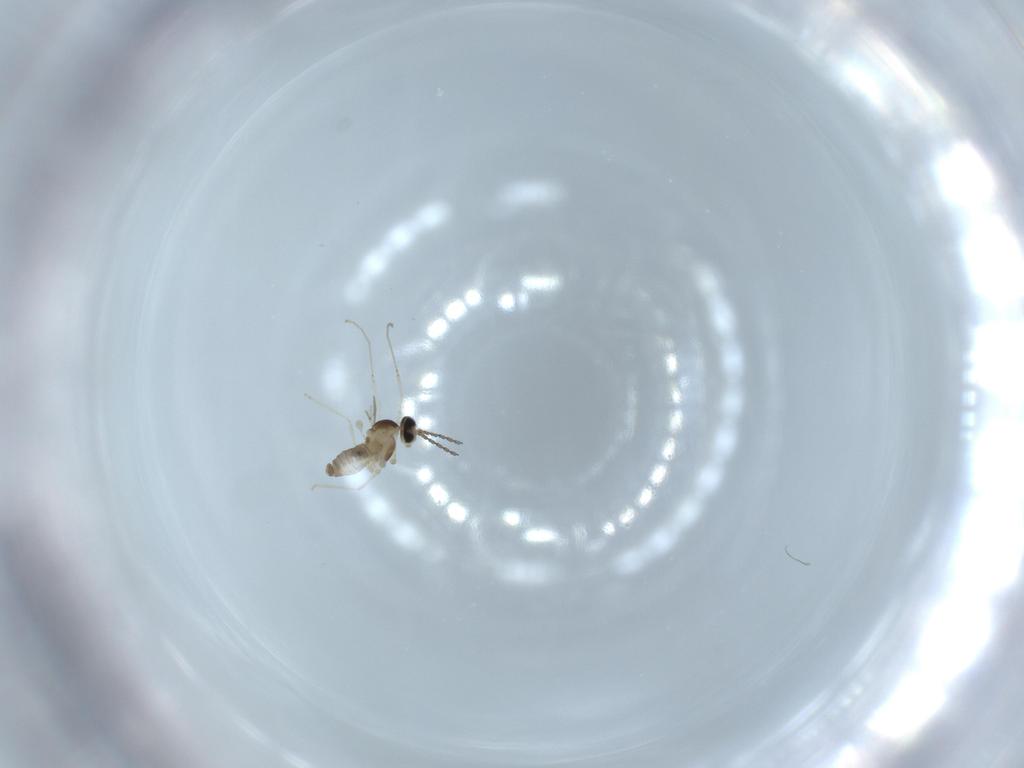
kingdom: Animalia
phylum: Arthropoda
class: Insecta
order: Diptera
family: Cecidomyiidae
